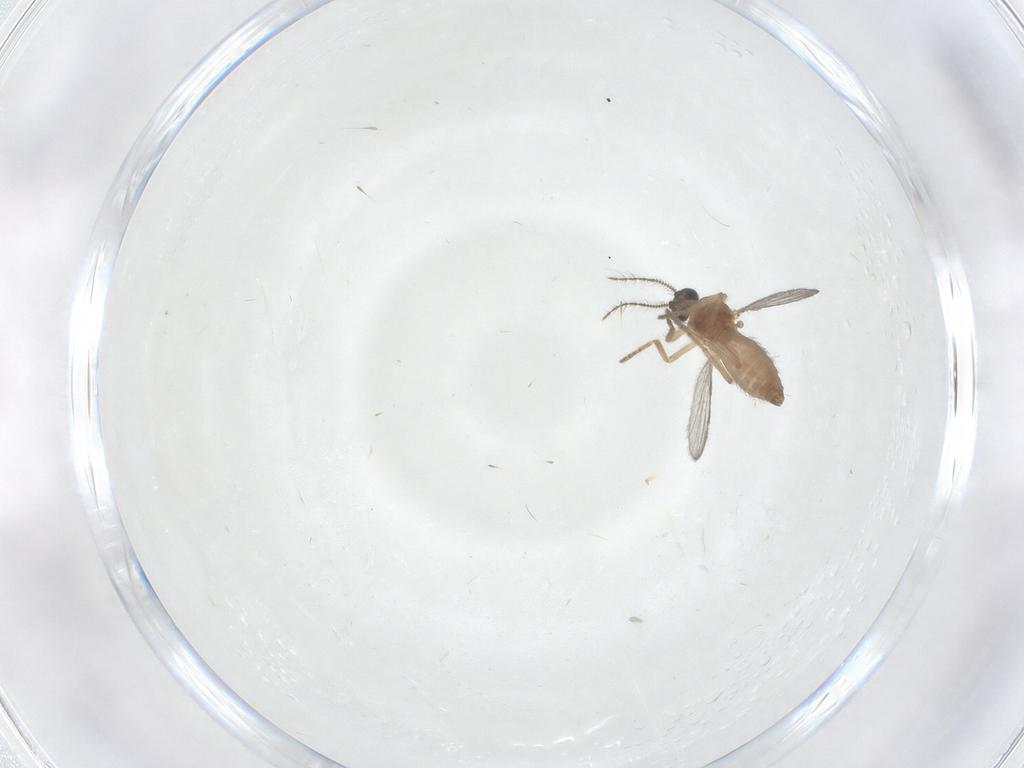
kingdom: Animalia
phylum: Arthropoda
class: Insecta
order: Diptera
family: Ceratopogonidae
